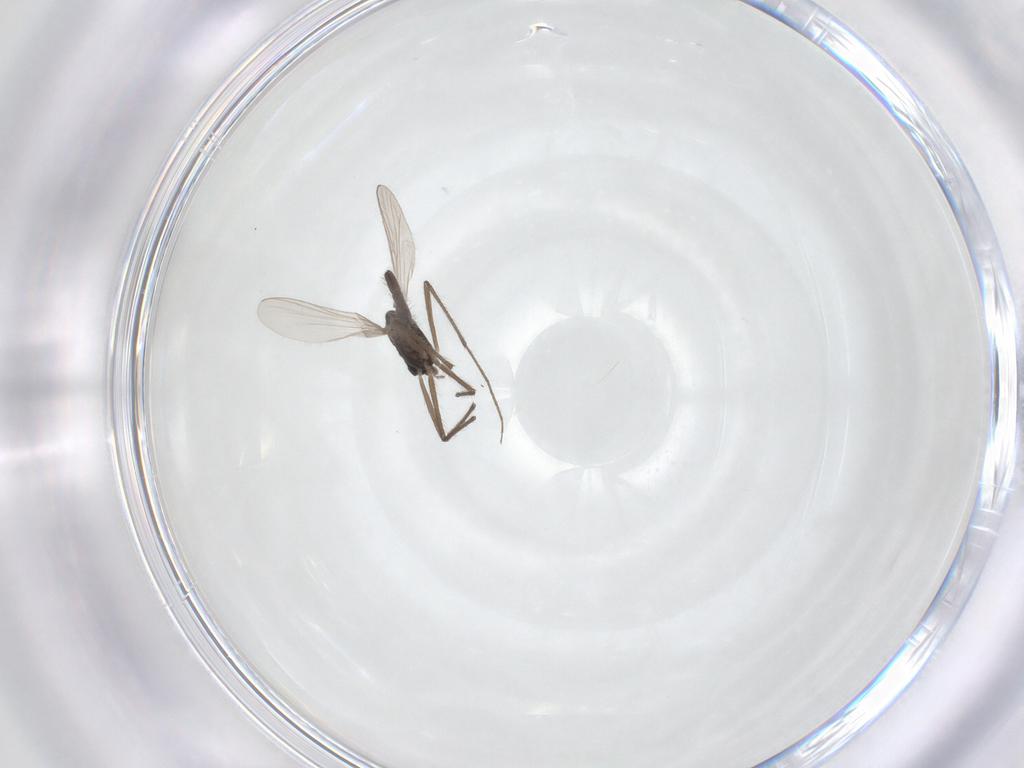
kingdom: Animalia
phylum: Arthropoda
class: Insecta
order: Diptera
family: Chironomidae
